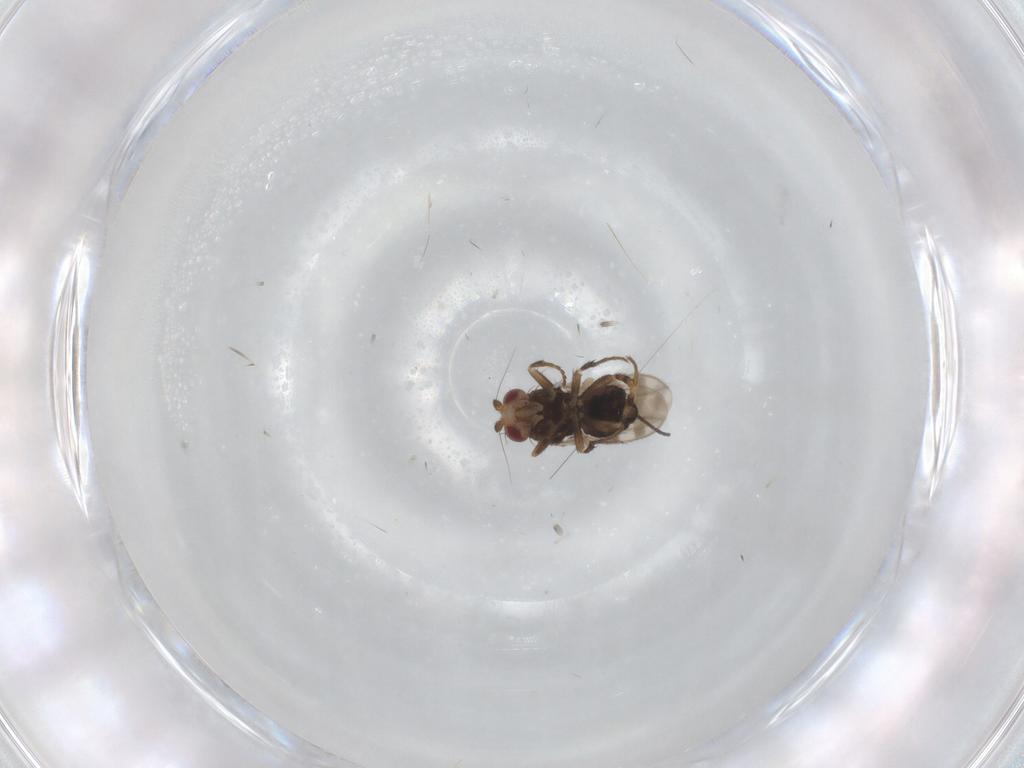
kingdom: Animalia
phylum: Arthropoda
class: Insecta
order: Diptera
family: Sphaeroceridae
